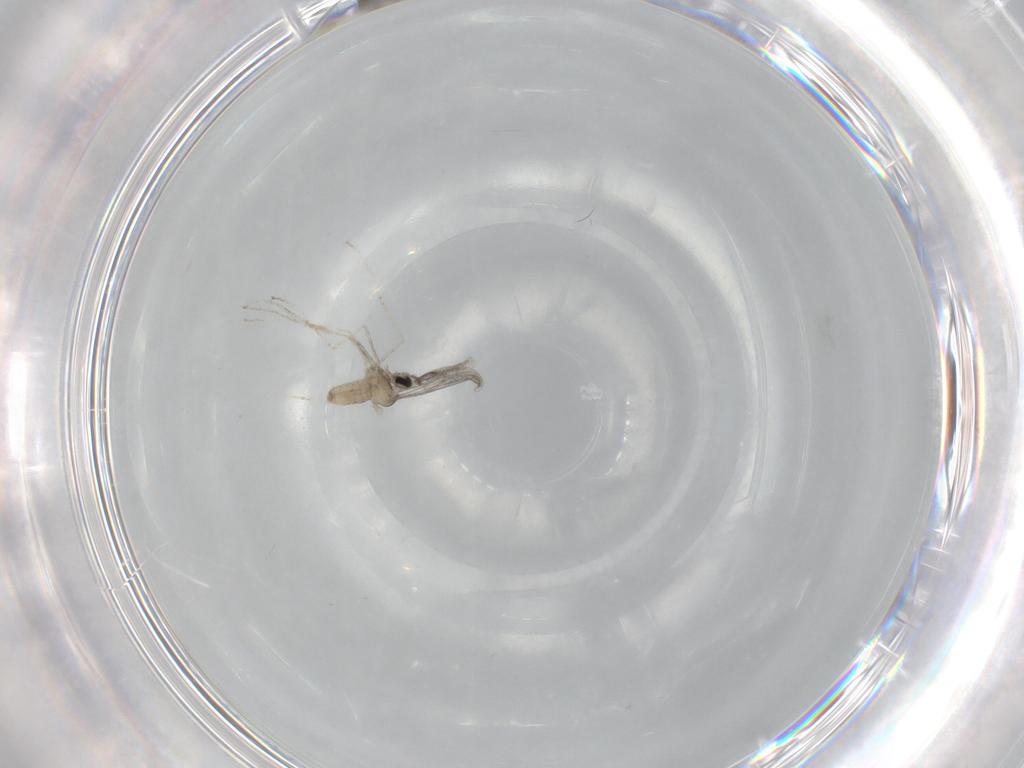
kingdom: Animalia
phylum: Arthropoda
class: Insecta
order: Diptera
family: Cecidomyiidae
